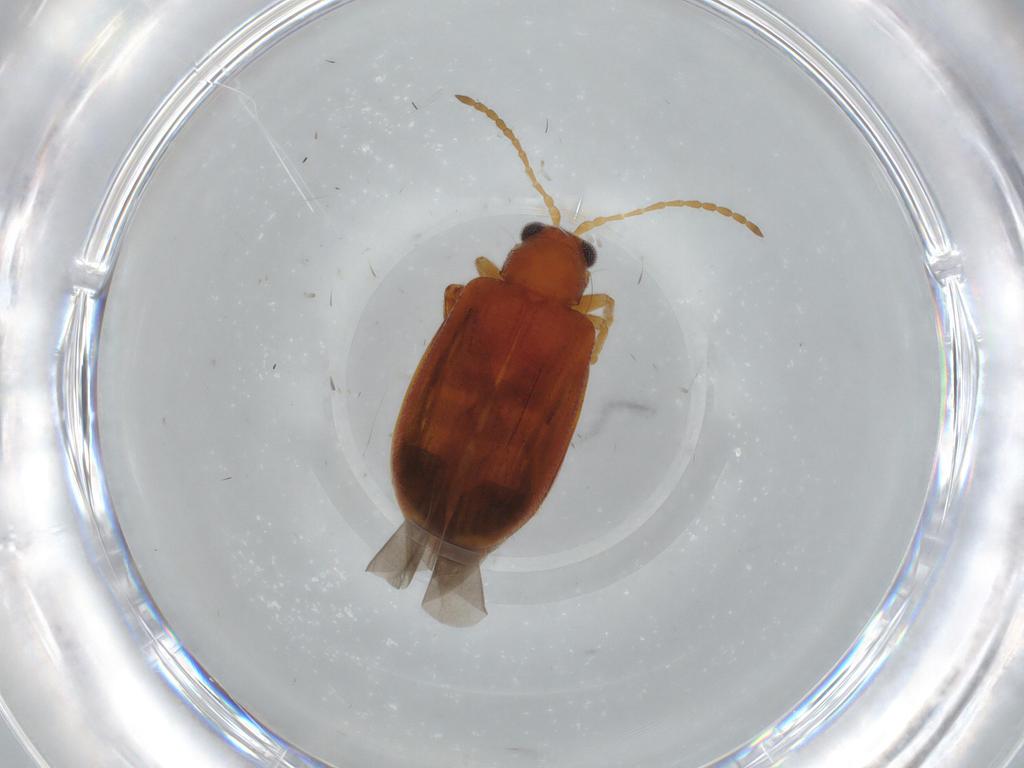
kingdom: Animalia
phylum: Arthropoda
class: Insecta
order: Coleoptera
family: Chrysomelidae
